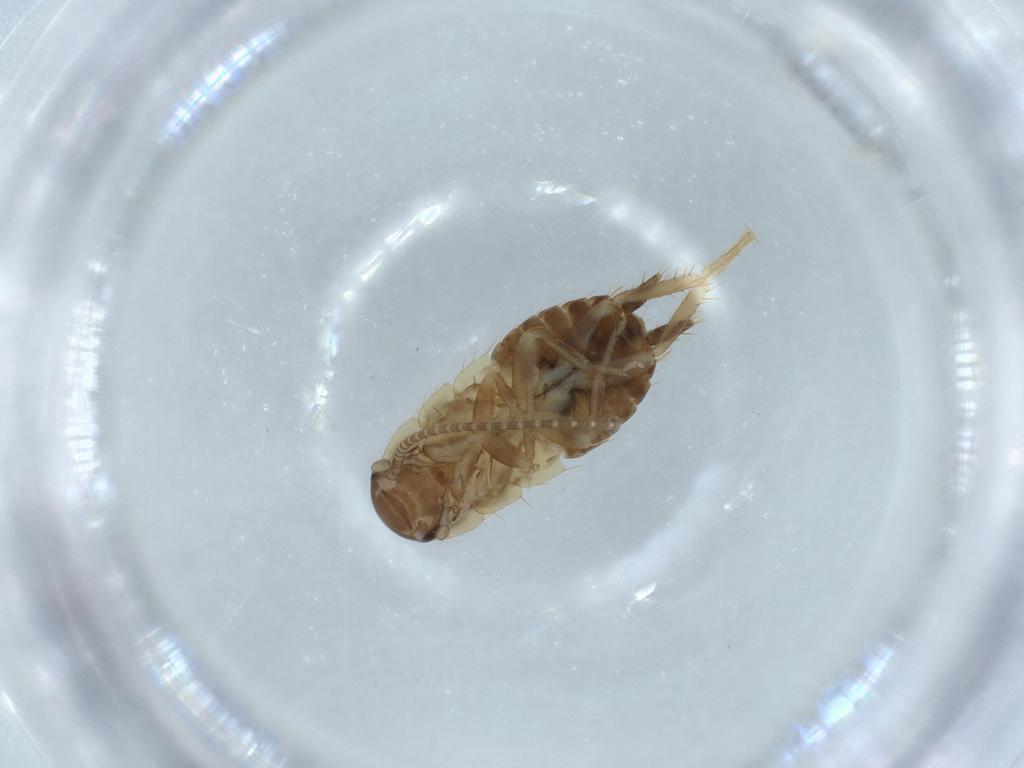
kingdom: Animalia
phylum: Arthropoda
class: Insecta
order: Blattodea
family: Ectobiidae
